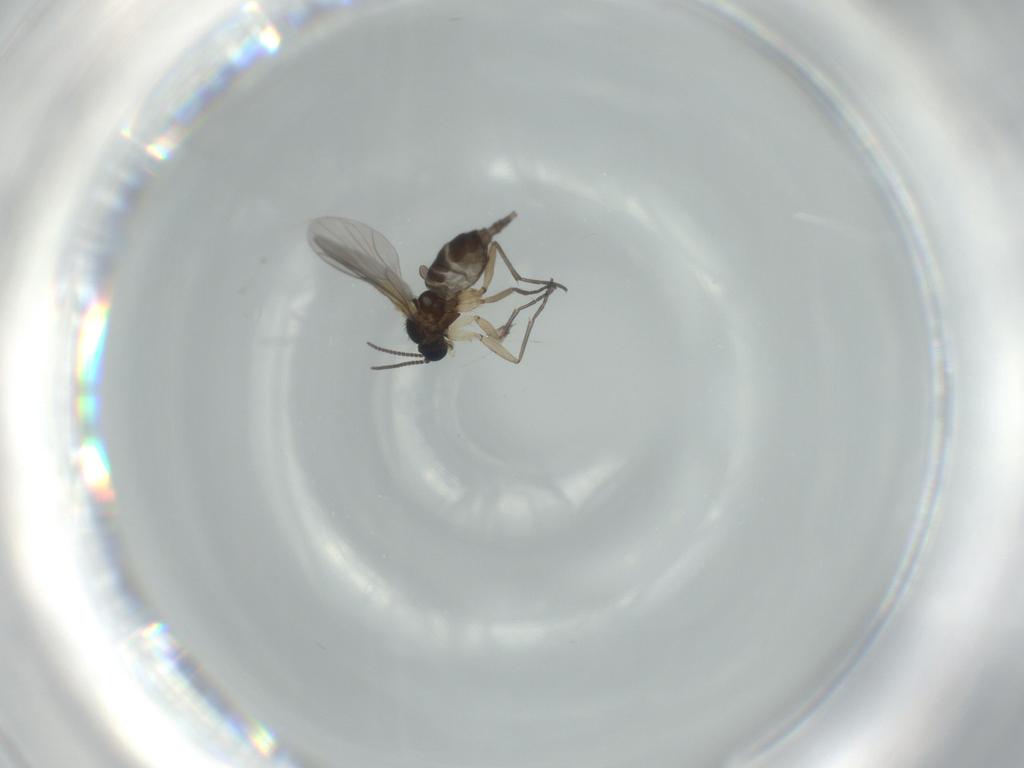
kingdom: Animalia
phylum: Arthropoda
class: Insecta
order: Diptera
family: Sciaridae
